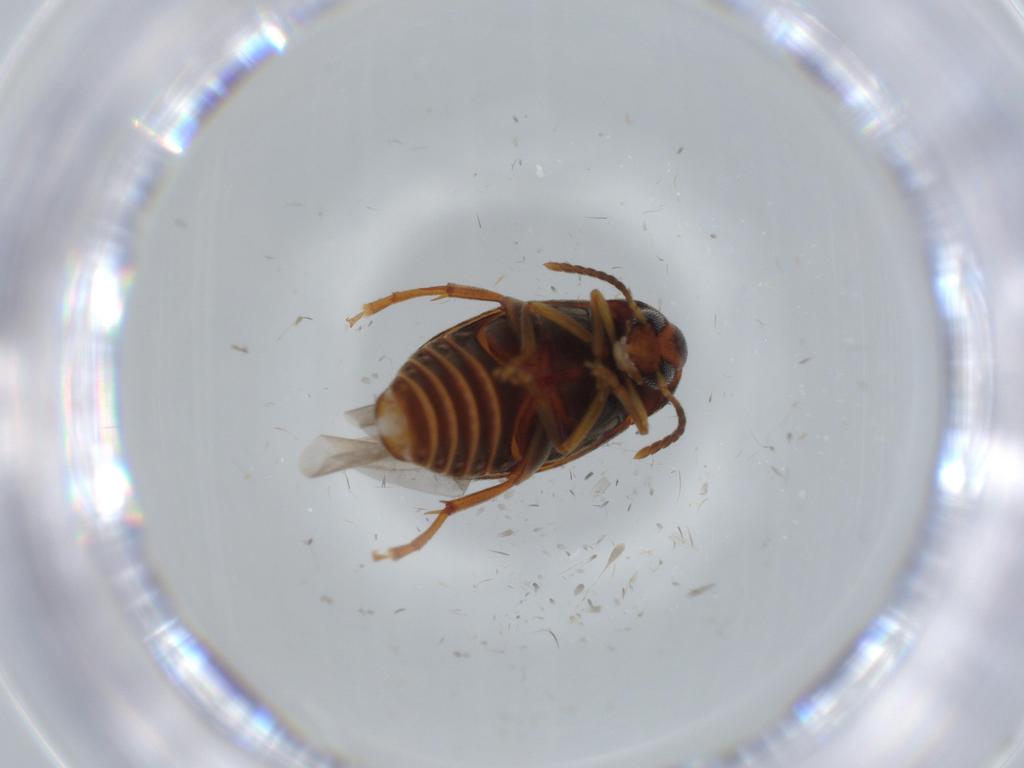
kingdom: Animalia
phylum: Arthropoda
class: Insecta
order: Coleoptera
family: Chrysomelidae
